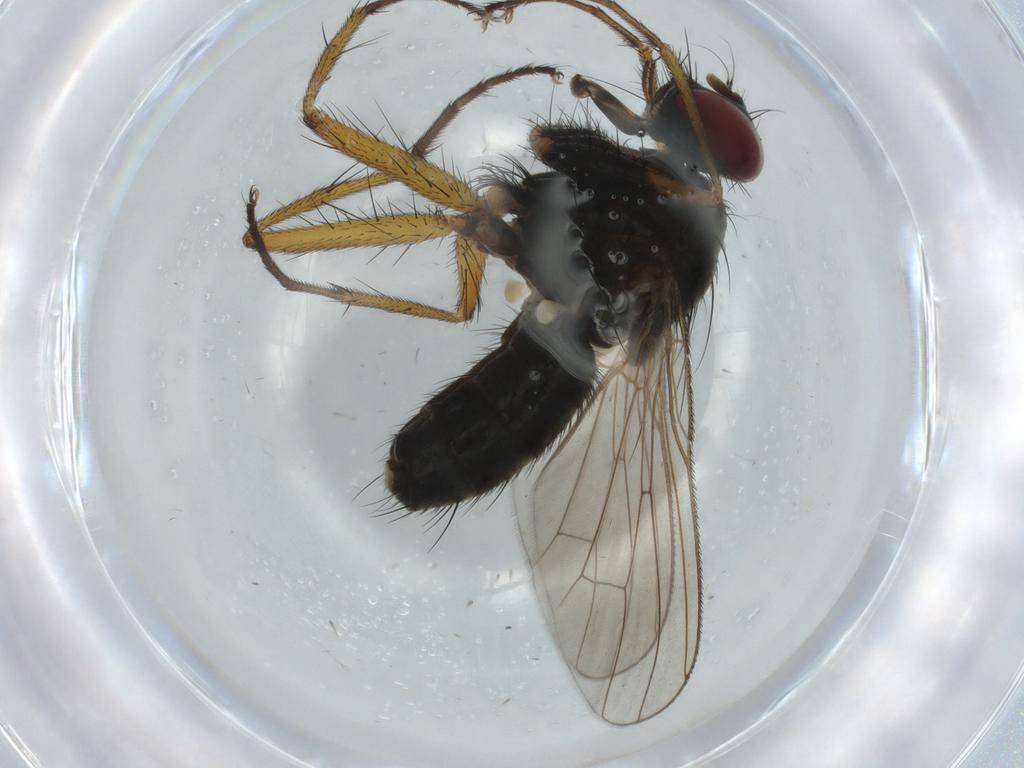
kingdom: Animalia
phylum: Arthropoda
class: Insecta
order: Diptera
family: Muscidae
